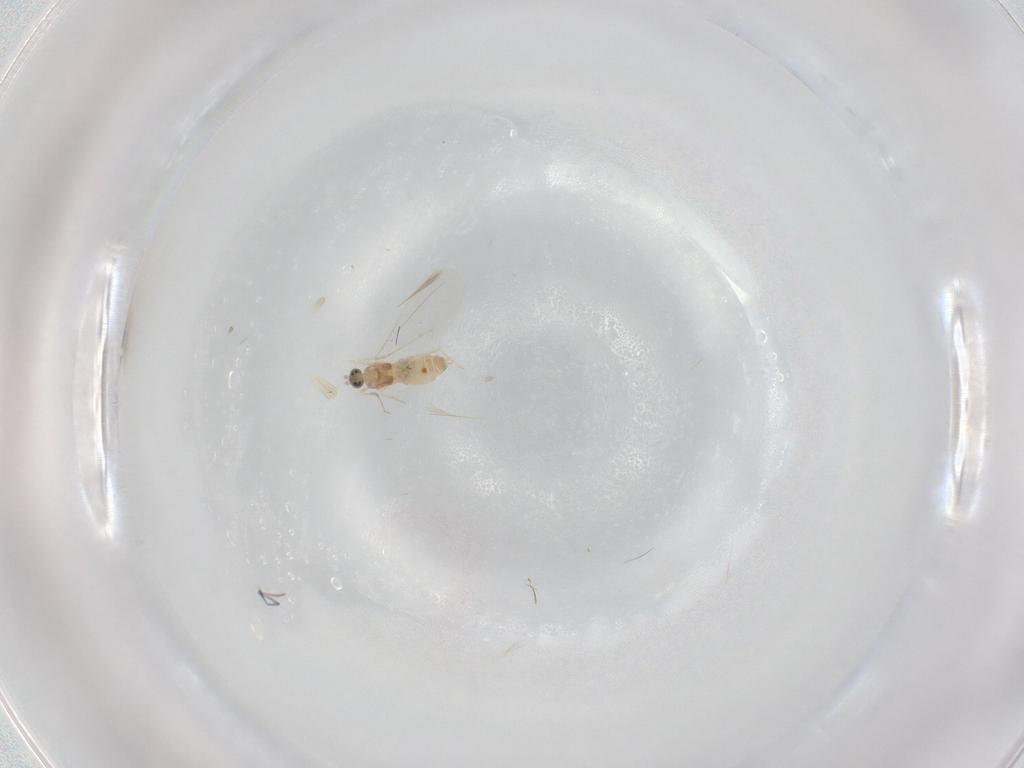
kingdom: Animalia
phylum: Arthropoda
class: Insecta
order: Diptera
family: Cecidomyiidae
